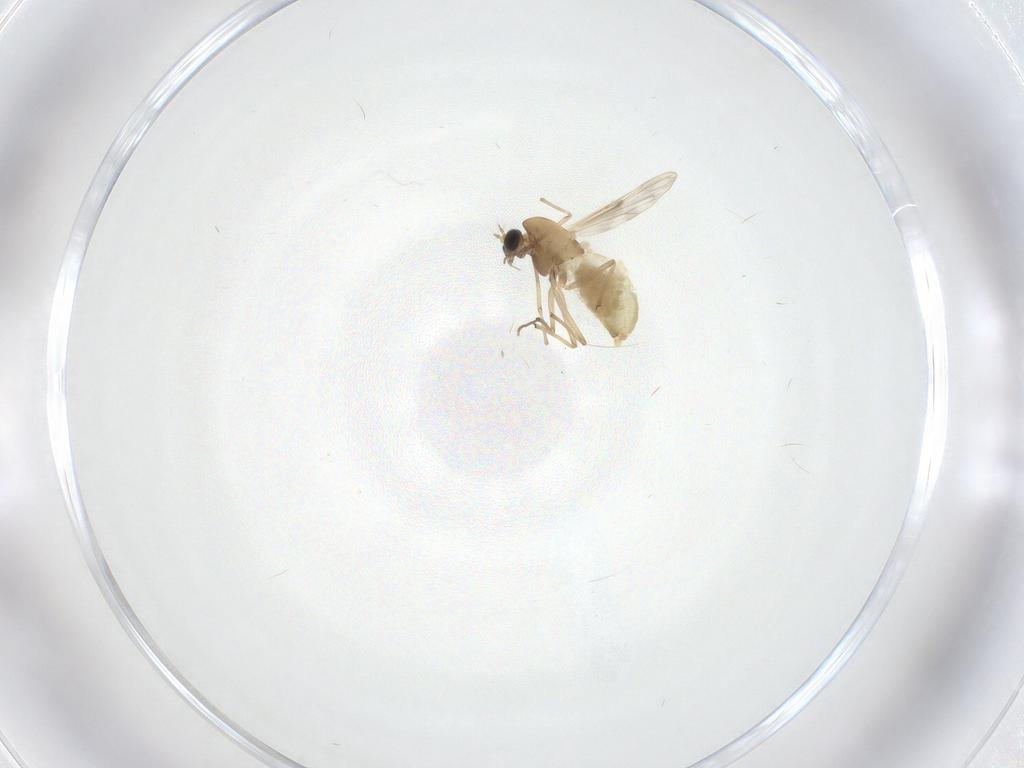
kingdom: Animalia
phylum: Arthropoda
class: Insecta
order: Diptera
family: Chironomidae
